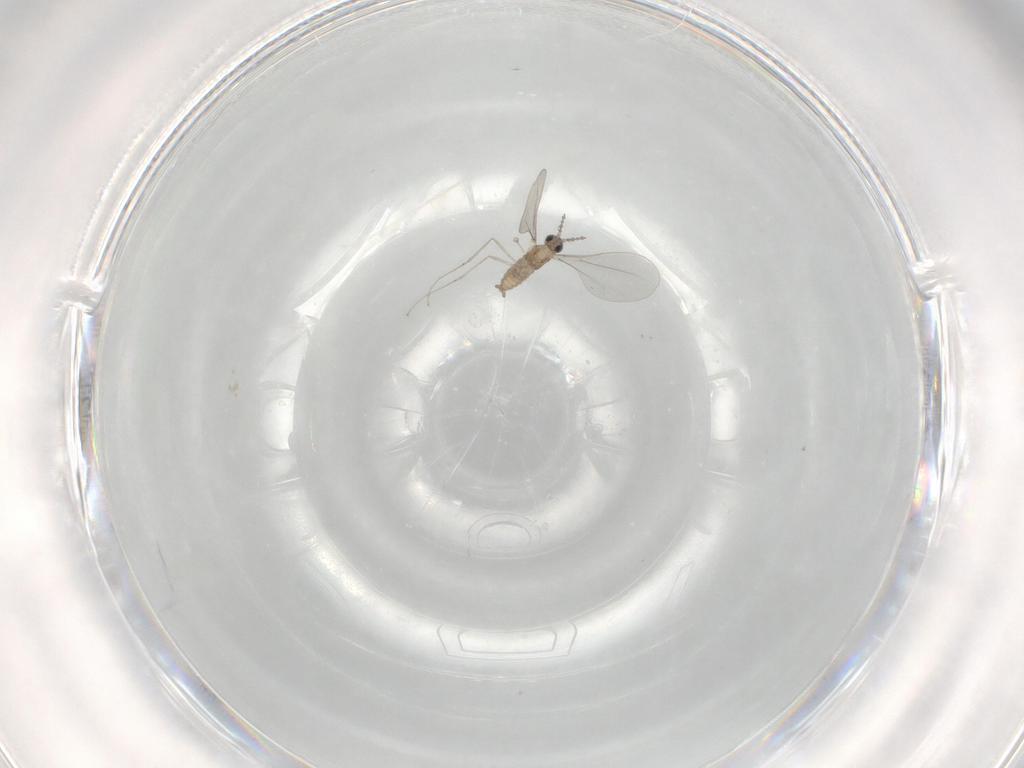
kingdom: Animalia
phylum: Arthropoda
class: Insecta
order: Diptera
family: Cecidomyiidae
